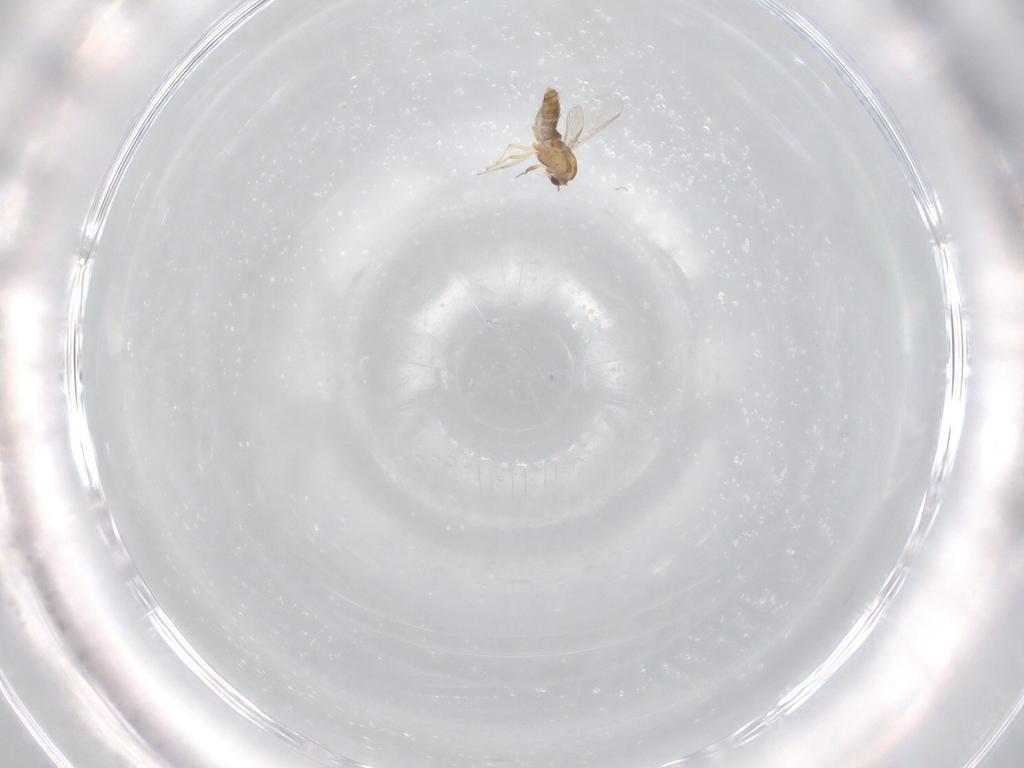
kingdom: Animalia
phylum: Arthropoda
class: Insecta
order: Diptera
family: Chironomidae
